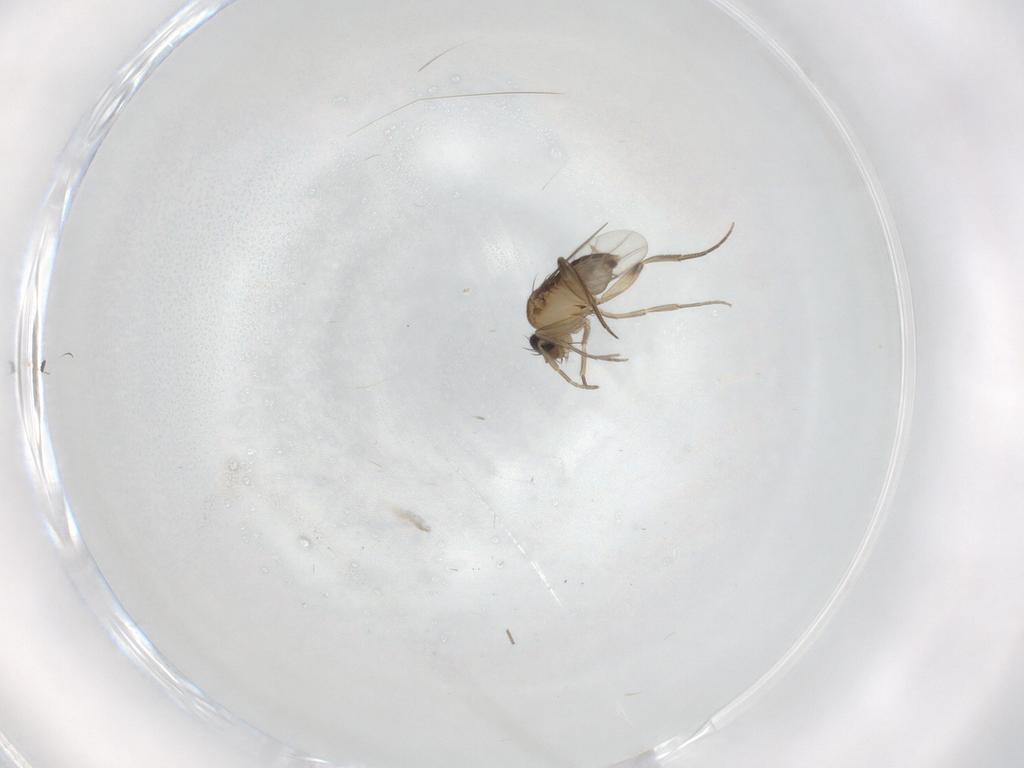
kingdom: Animalia
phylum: Arthropoda
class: Insecta
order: Diptera
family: Phoridae
